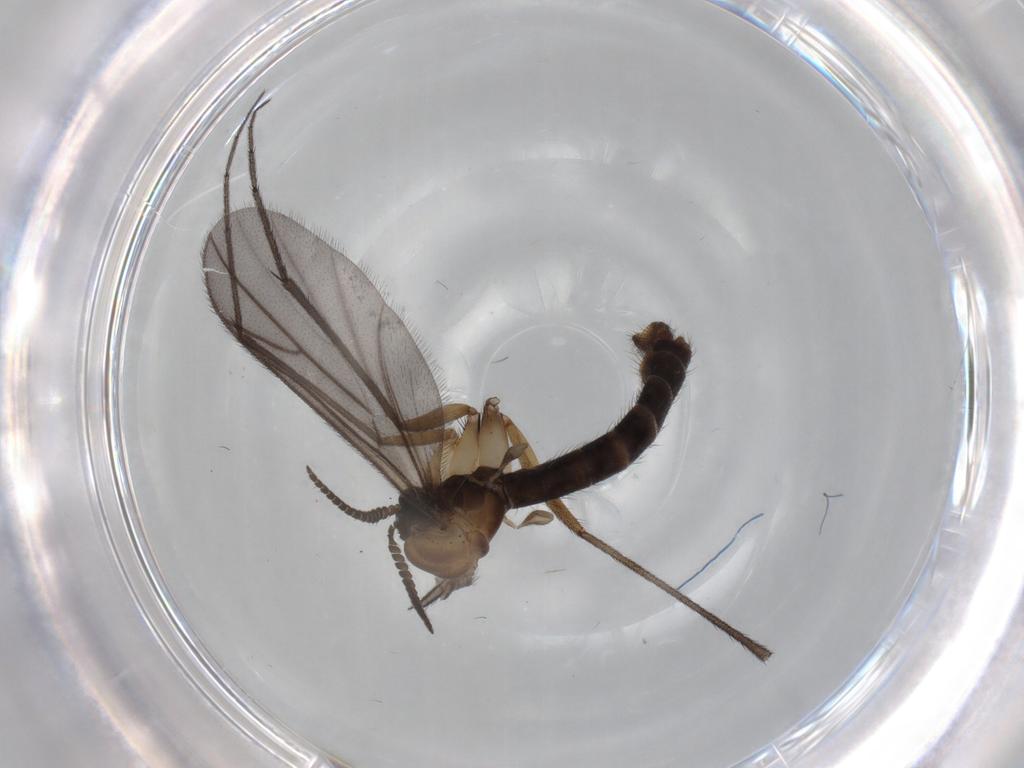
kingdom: Animalia
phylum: Arthropoda
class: Insecta
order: Diptera
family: Ditomyiidae
